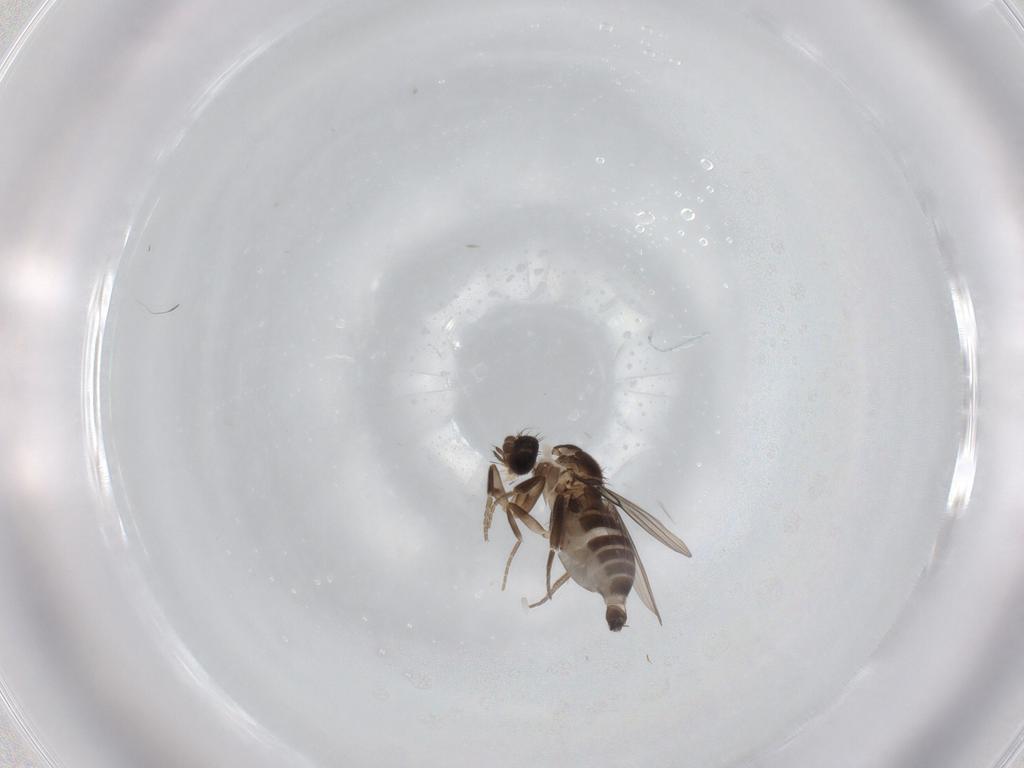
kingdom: Animalia
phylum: Arthropoda
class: Insecta
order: Diptera
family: Phoridae
